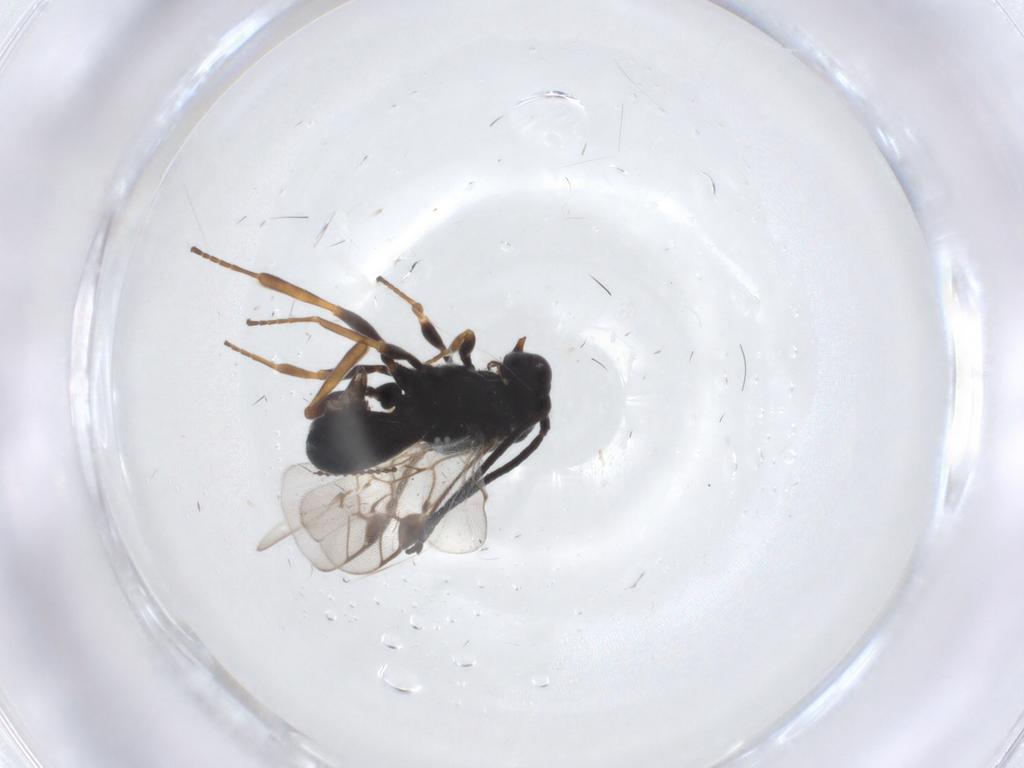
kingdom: Animalia
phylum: Arthropoda
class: Insecta
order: Hymenoptera
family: Braconidae
